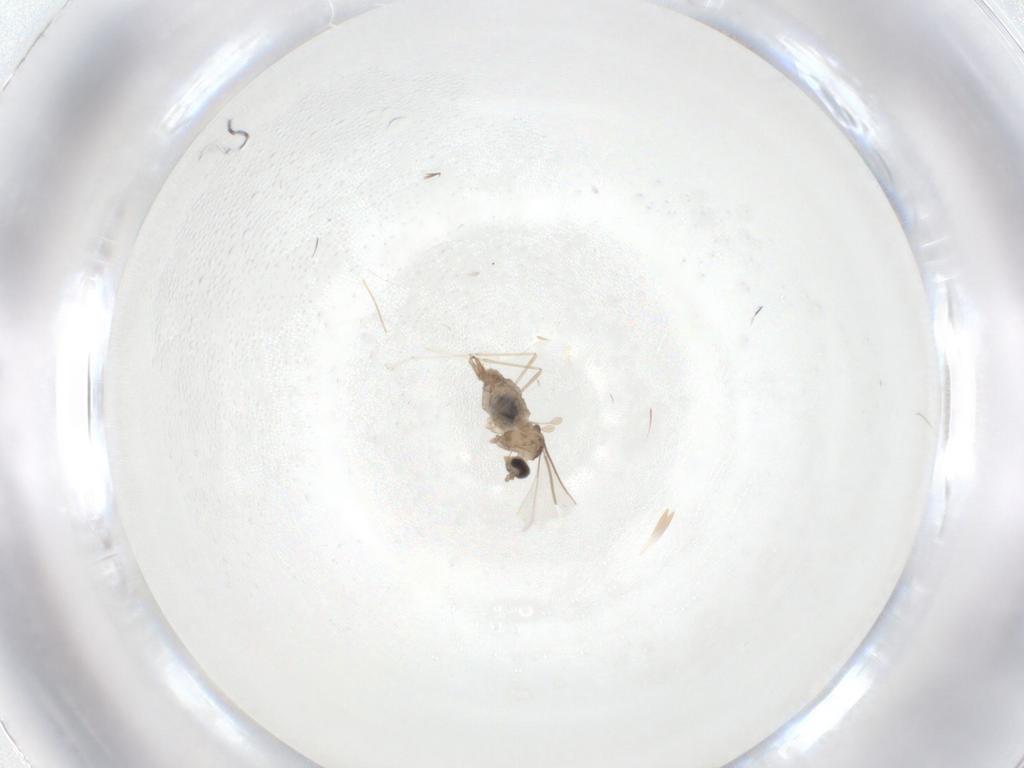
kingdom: Animalia
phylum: Arthropoda
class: Insecta
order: Diptera
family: Cecidomyiidae
